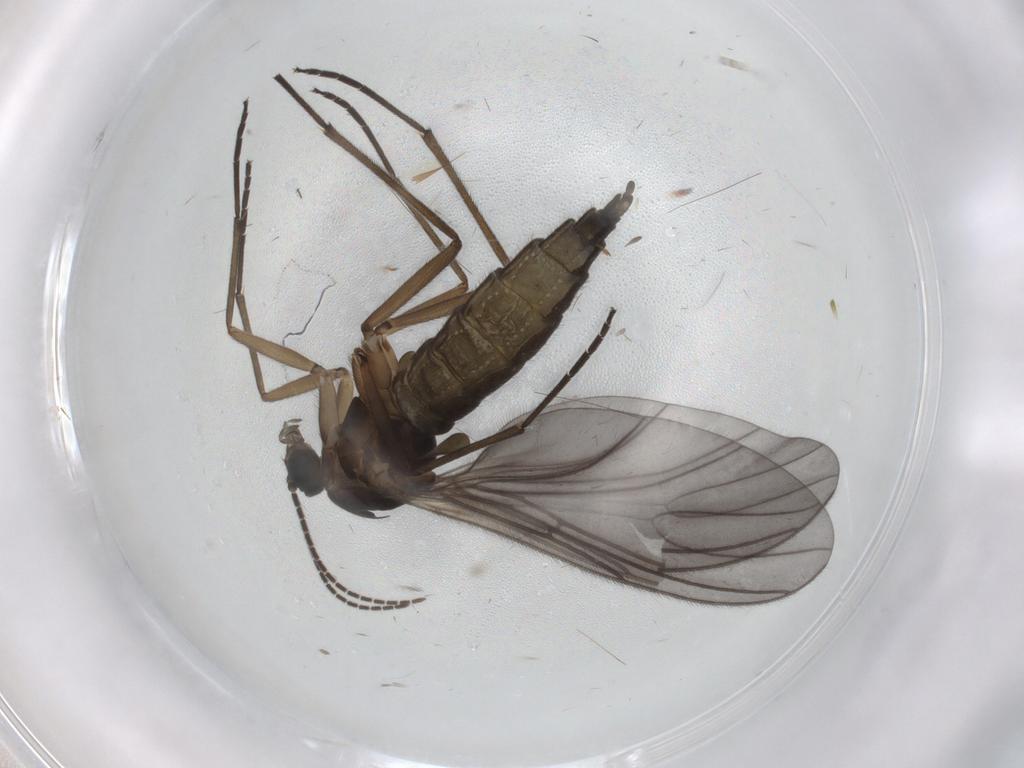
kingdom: Animalia
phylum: Arthropoda
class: Insecta
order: Diptera
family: Sciaridae
